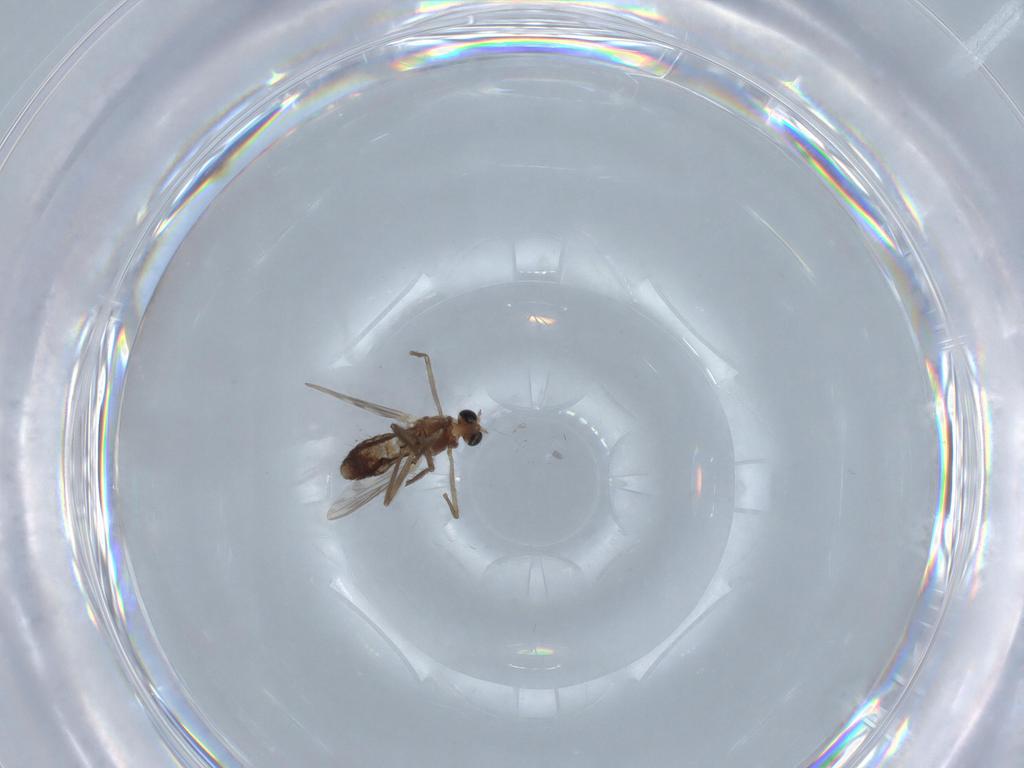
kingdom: Animalia
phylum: Arthropoda
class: Insecta
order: Diptera
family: Chironomidae
